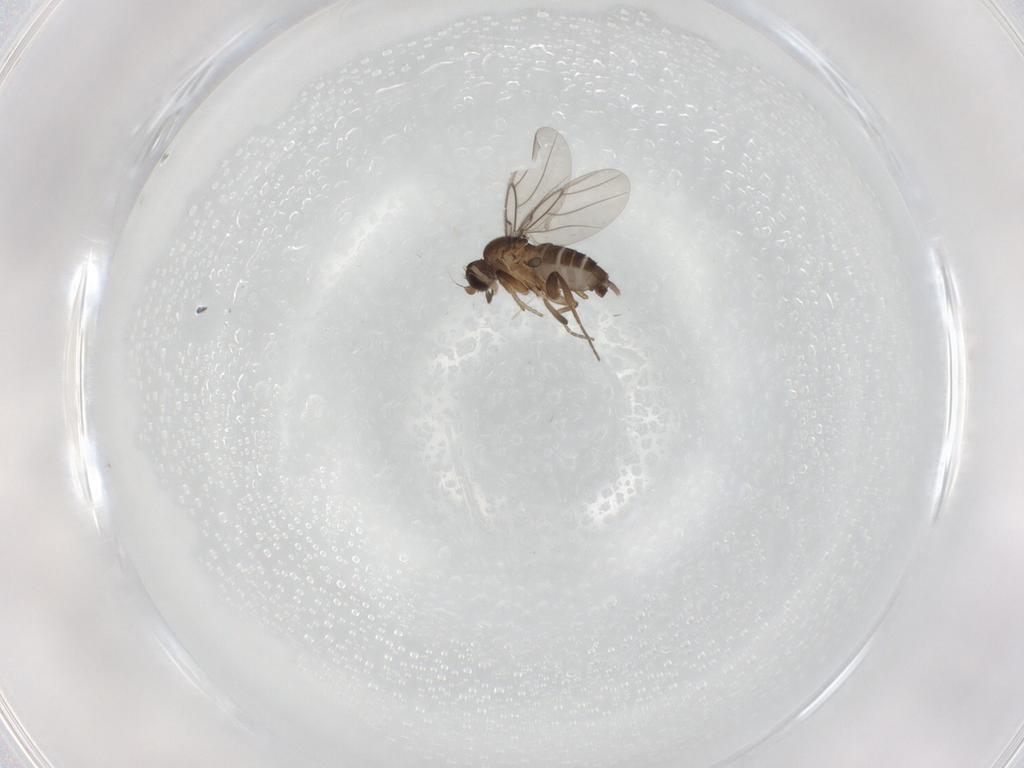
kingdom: Animalia
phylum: Arthropoda
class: Insecta
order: Diptera
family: Phoridae
